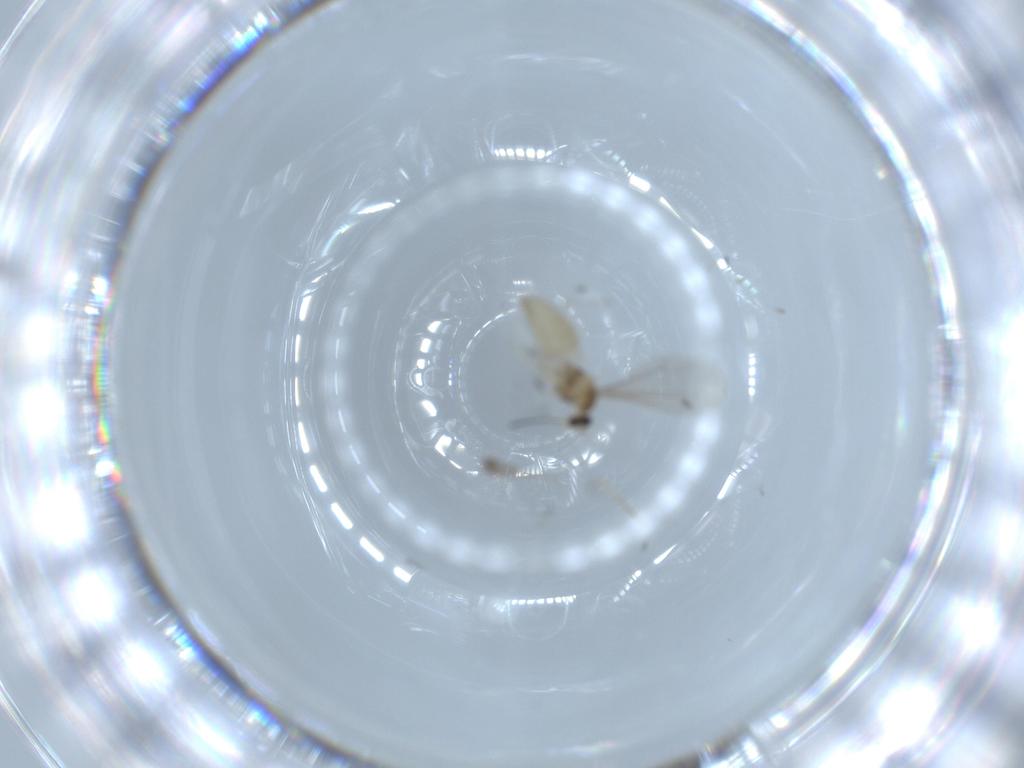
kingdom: Animalia
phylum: Arthropoda
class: Insecta
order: Diptera
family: Cecidomyiidae
